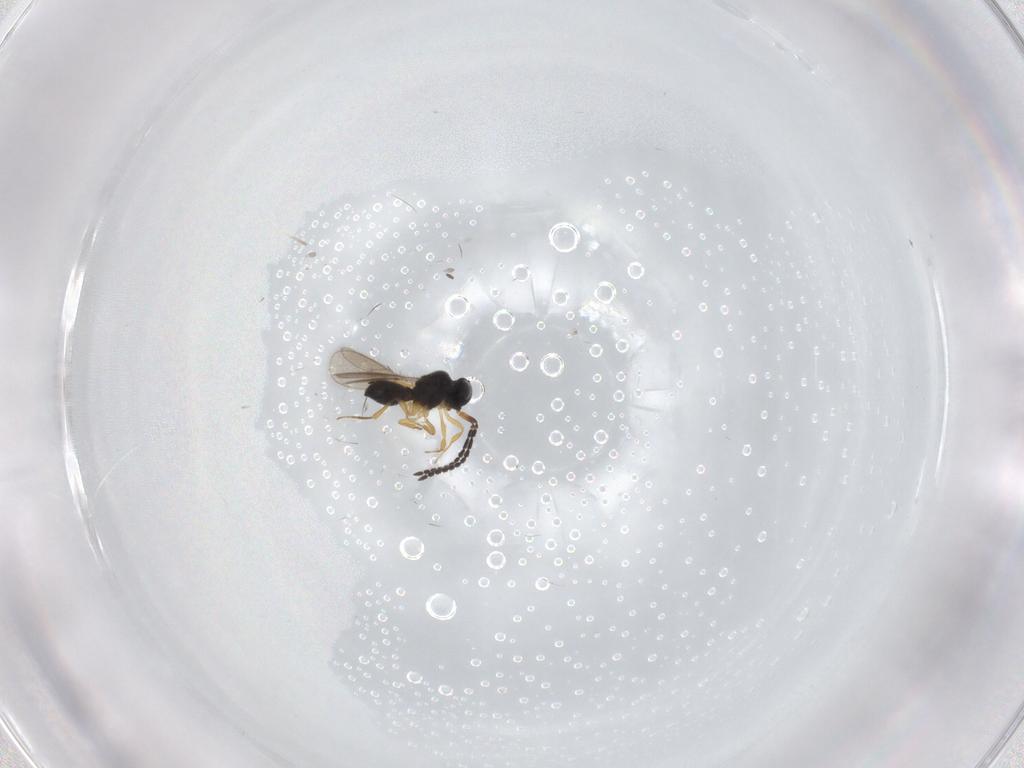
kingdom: Animalia
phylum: Arthropoda
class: Insecta
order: Hymenoptera
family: Scelionidae
